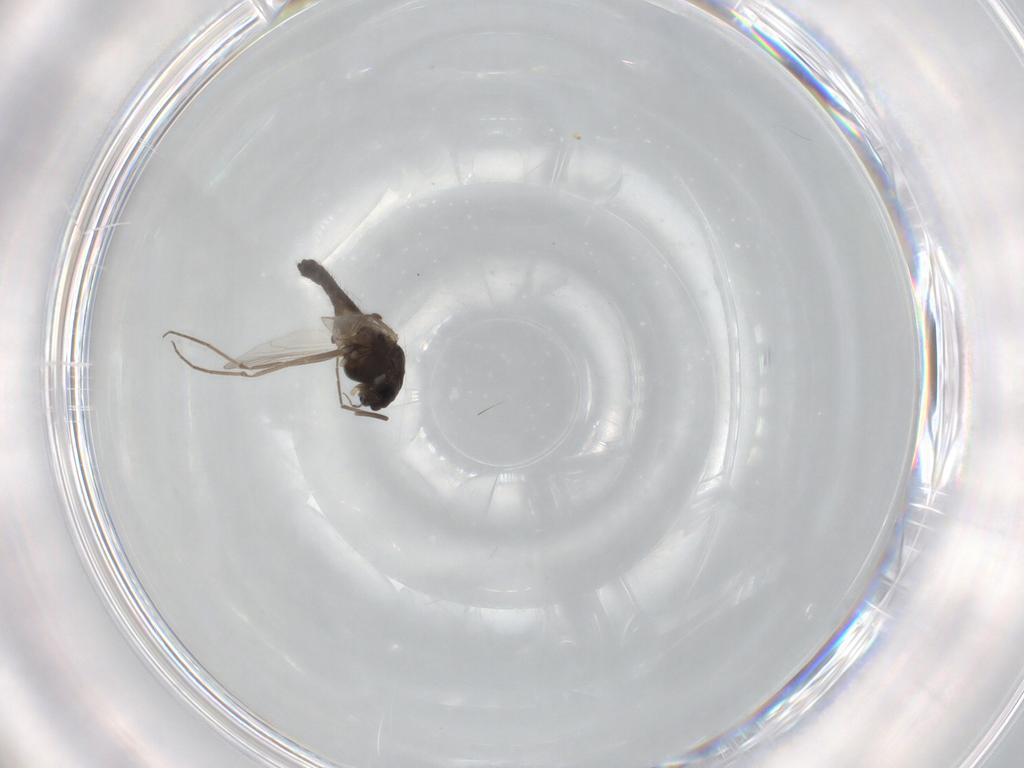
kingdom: Animalia
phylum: Arthropoda
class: Insecta
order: Diptera
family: Chironomidae
